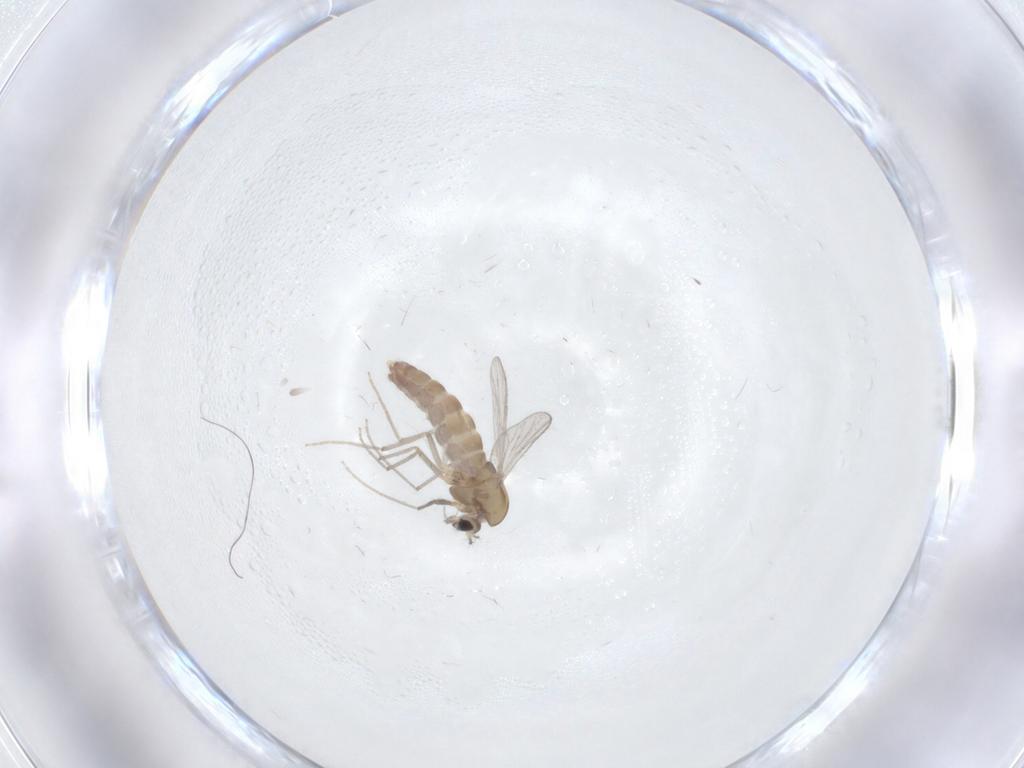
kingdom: Animalia
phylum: Arthropoda
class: Insecta
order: Diptera
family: Chironomidae
